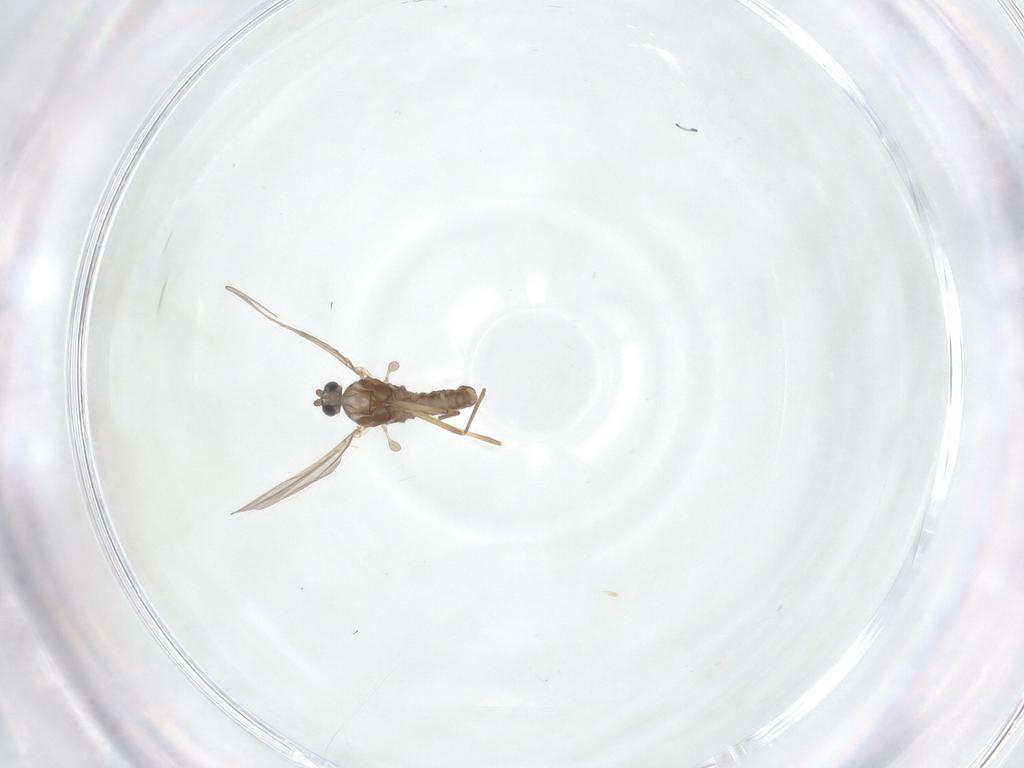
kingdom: Animalia
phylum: Arthropoda
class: Insecta
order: Diptera
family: Cecidomyiidae
